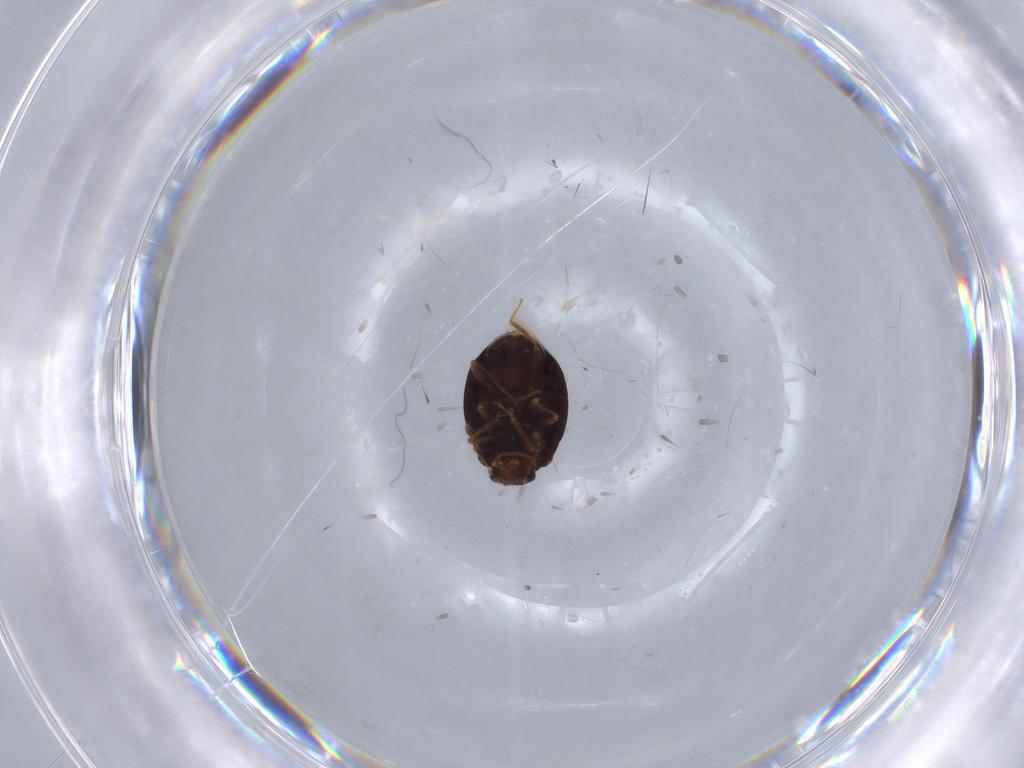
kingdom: Animalia
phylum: Arthropoda
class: Insecta
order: Coleoptera
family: Anamorphidae
